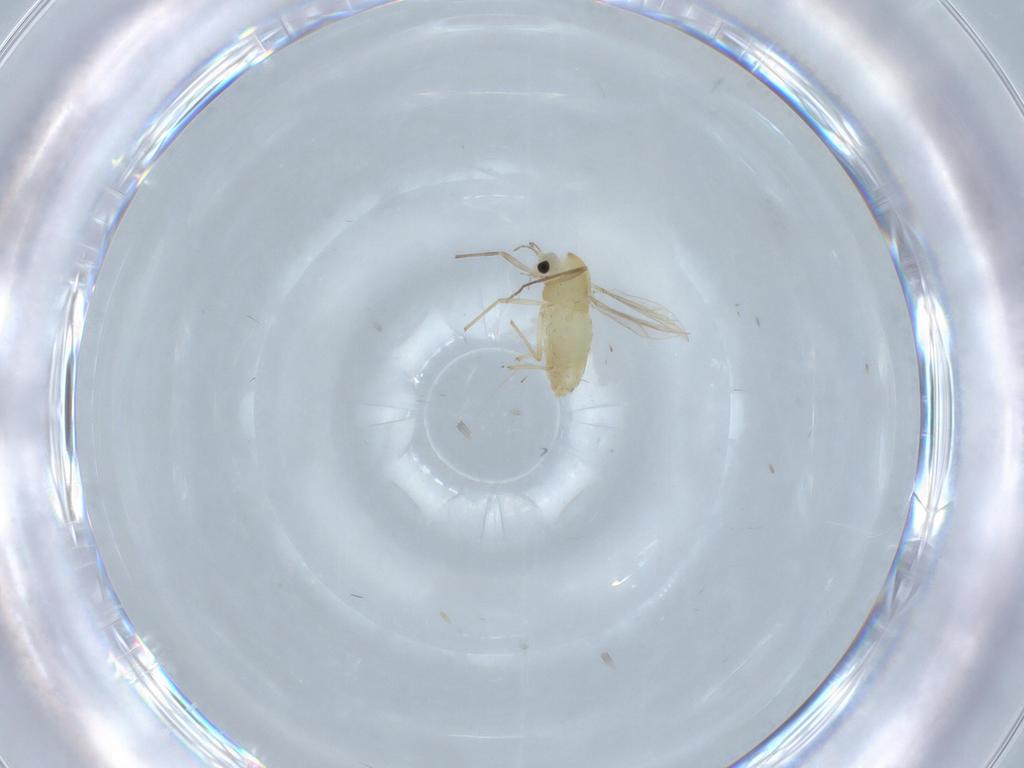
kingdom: Animalia
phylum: Arthropoda
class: Insecta
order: Diptera
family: Chironomidae
